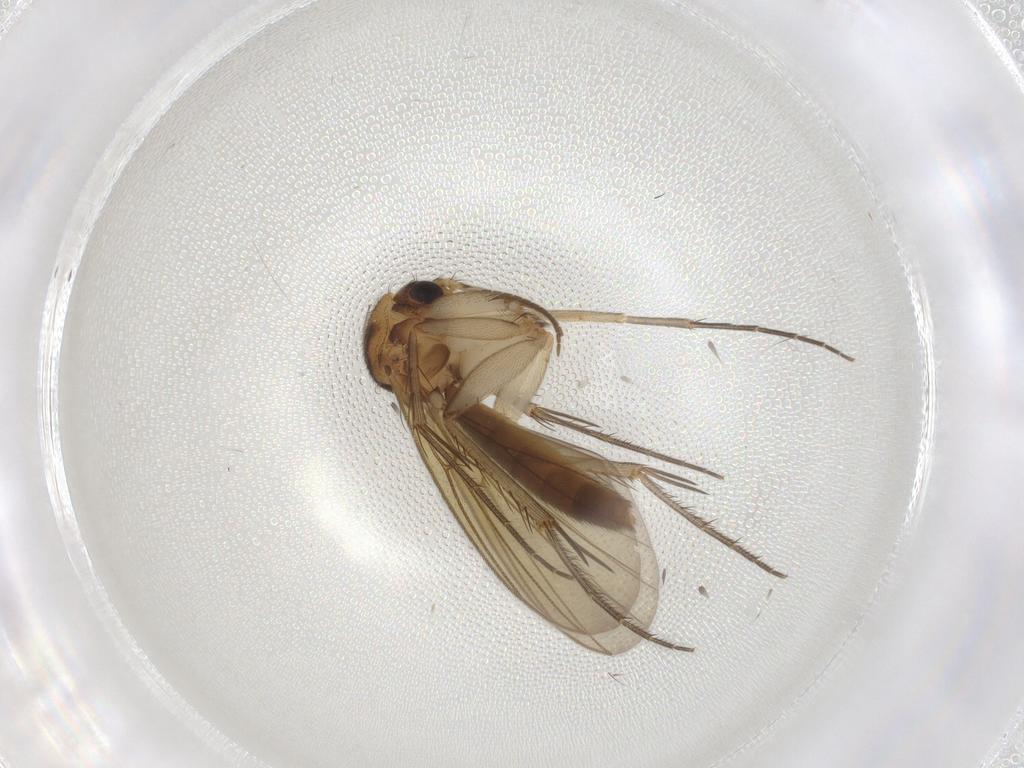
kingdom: Animalia
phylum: Arthropoda
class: Insecta
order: Diptera
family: Mycetophilidae
